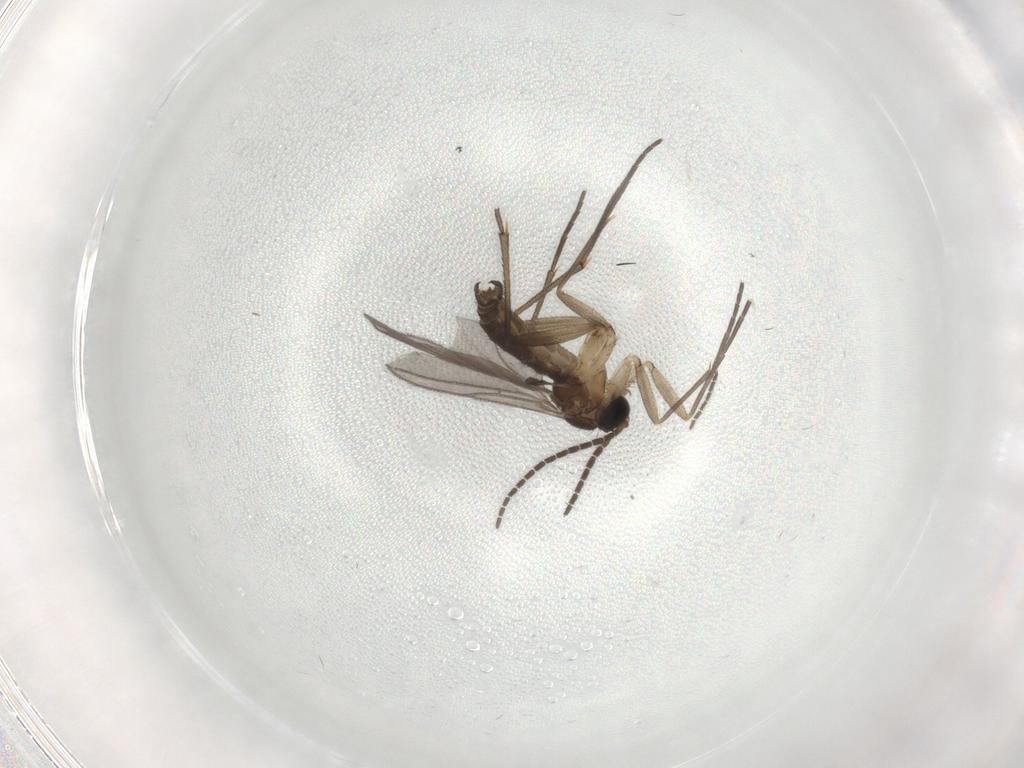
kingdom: Animalia
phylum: Arthropoda
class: Insecta
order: Diptera
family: Sciaridae
